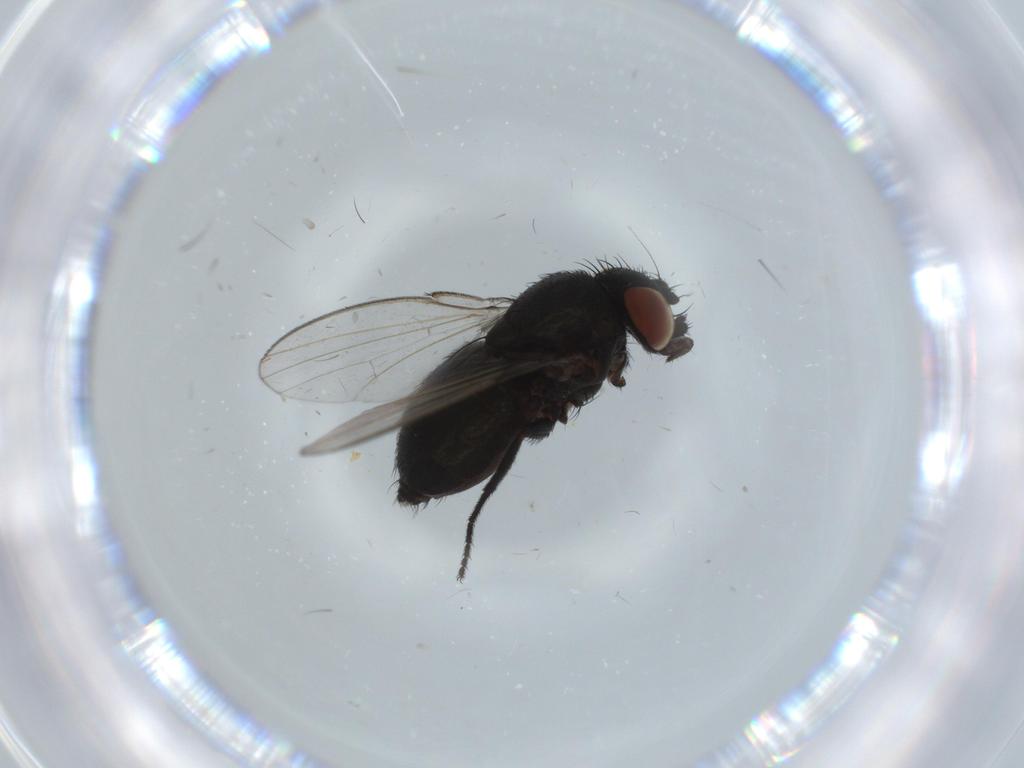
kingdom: Animalia
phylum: Arthropoda
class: Insecta
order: Diptera
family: Milichiidae
